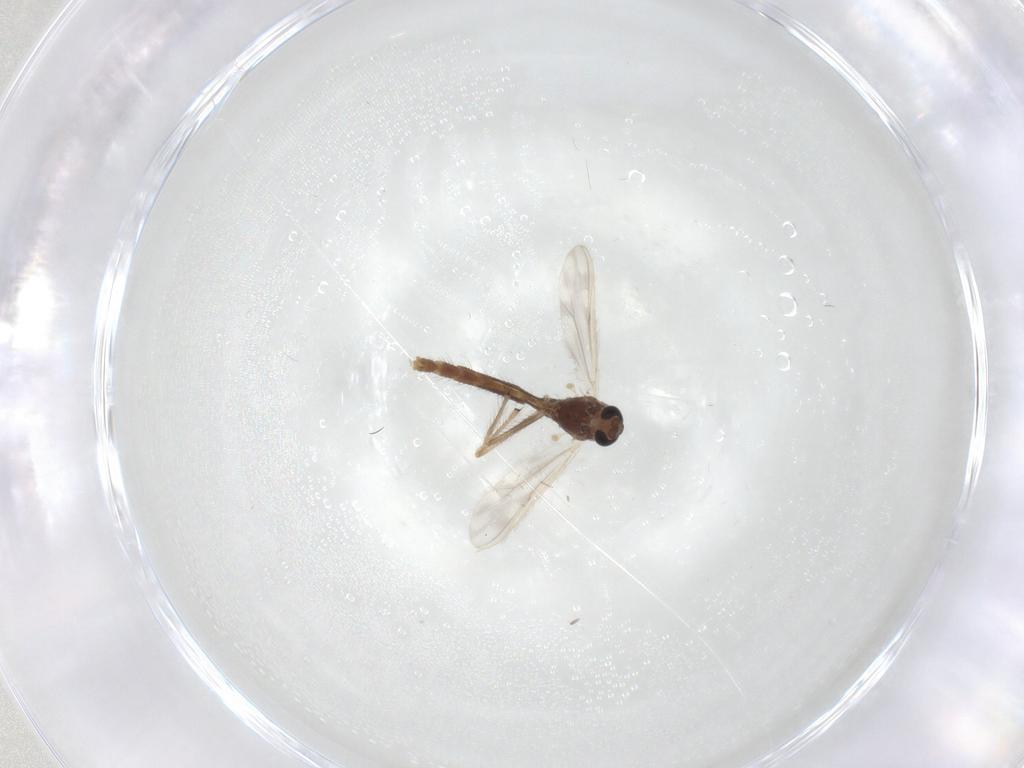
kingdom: Animalia
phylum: Arthropoda
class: Insecta
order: Diptera
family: Chironomidae
